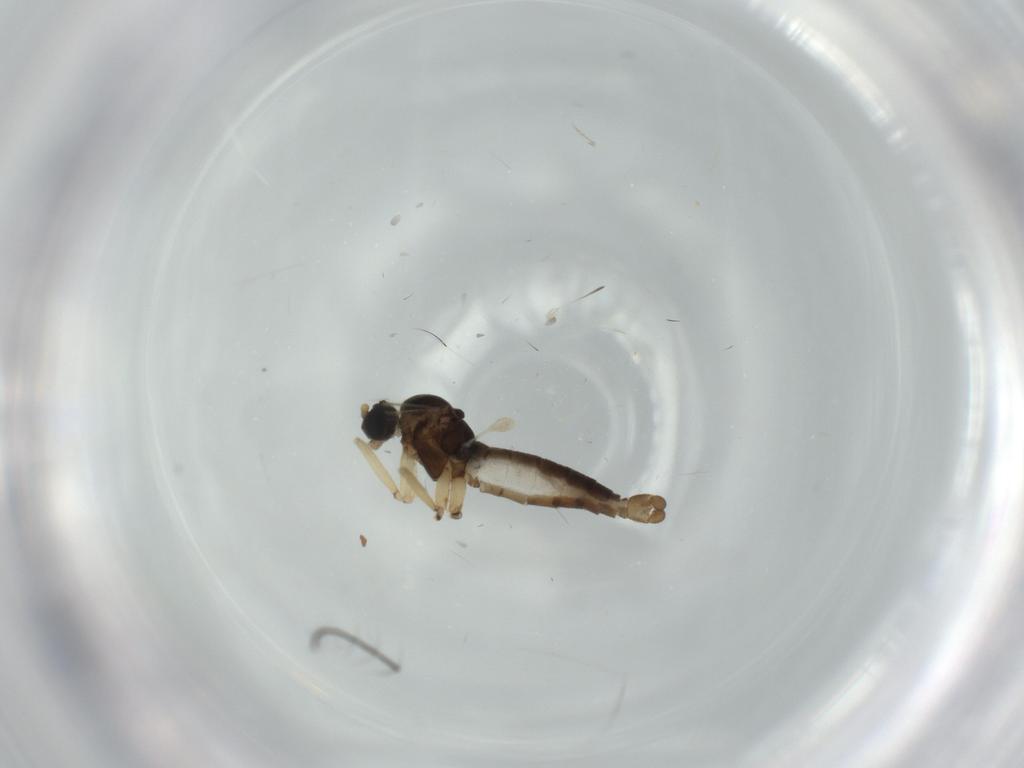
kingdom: Animalia
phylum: Arthropoda
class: Insecta
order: Diptera
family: Culicidae
